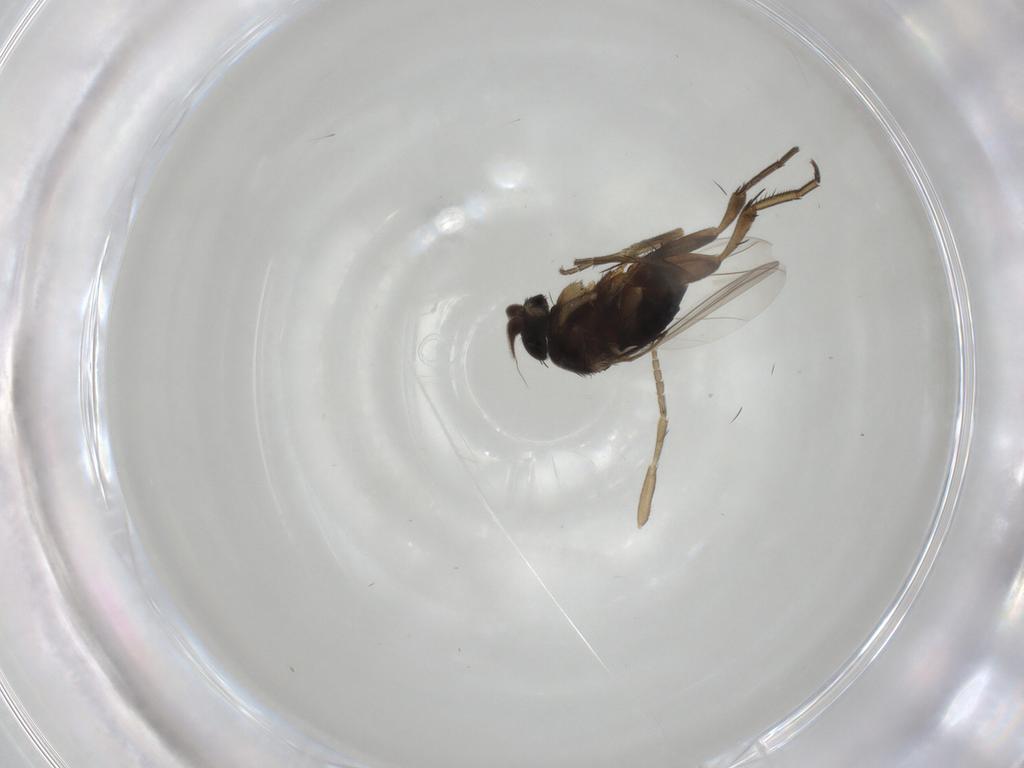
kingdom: Animalia
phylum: Arthropoda
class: Insecta
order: Diptera
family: Phoridae
